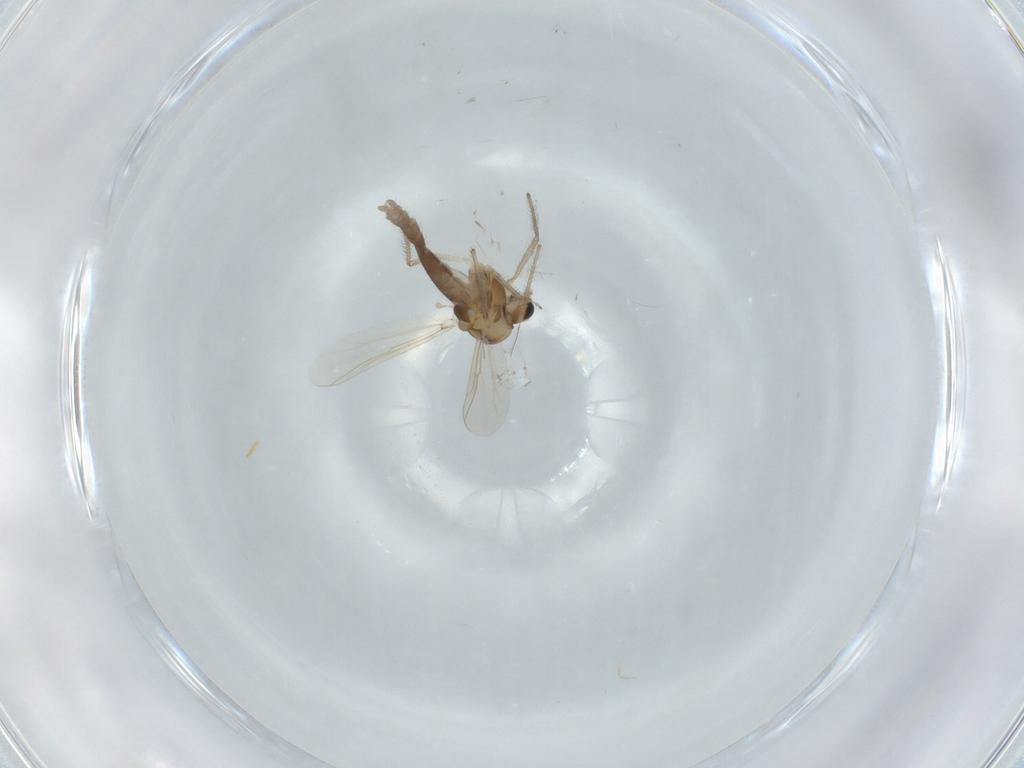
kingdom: Animalia
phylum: Arthropoda
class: Insecta
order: Diptera
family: Chironomidae
